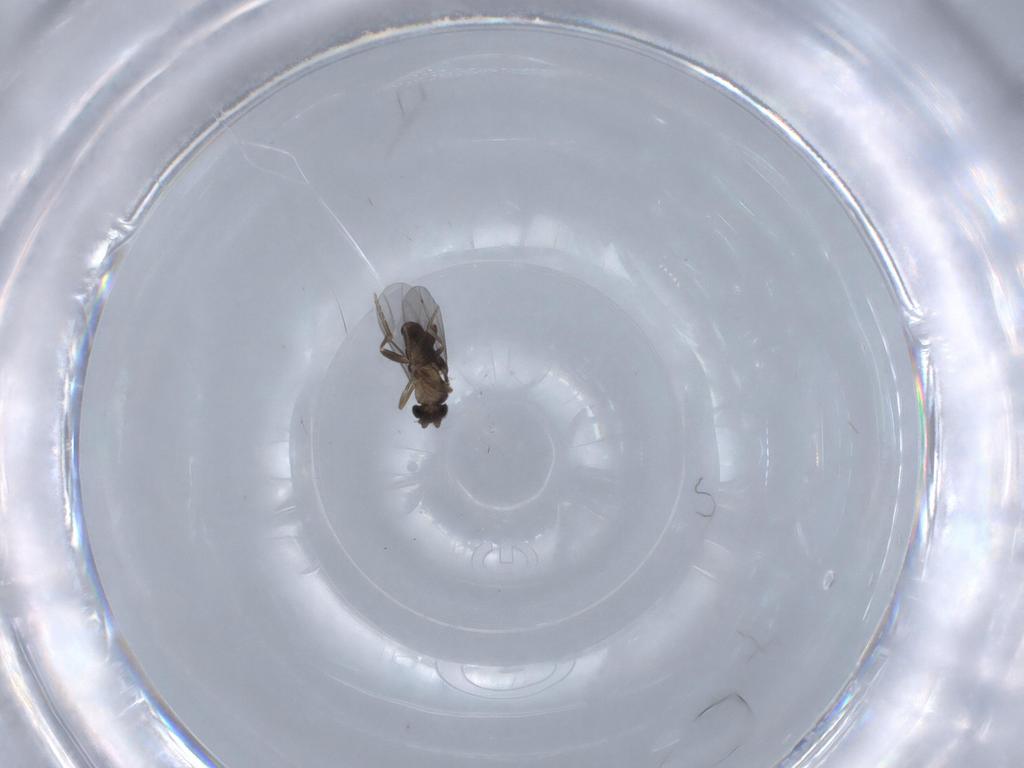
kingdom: Animalia
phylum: Arthropoda
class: Insecta
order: Diptera
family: Phoridae
